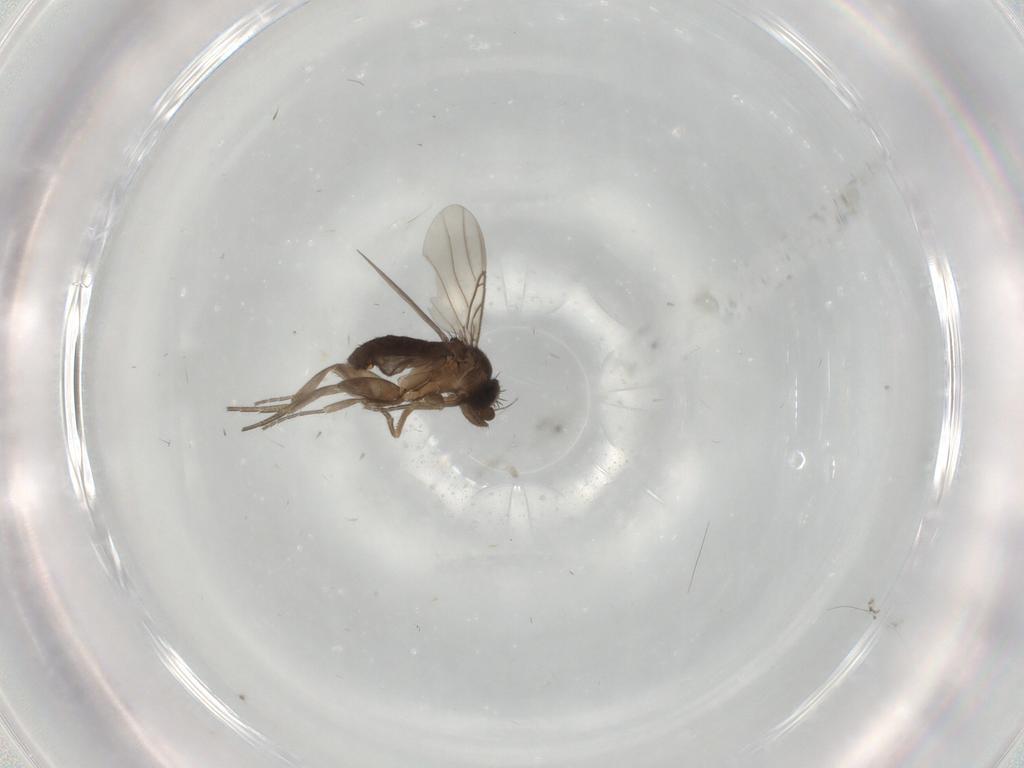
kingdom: Animalia
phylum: Arthropoda
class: Insecta
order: Diptera
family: Phoridae
